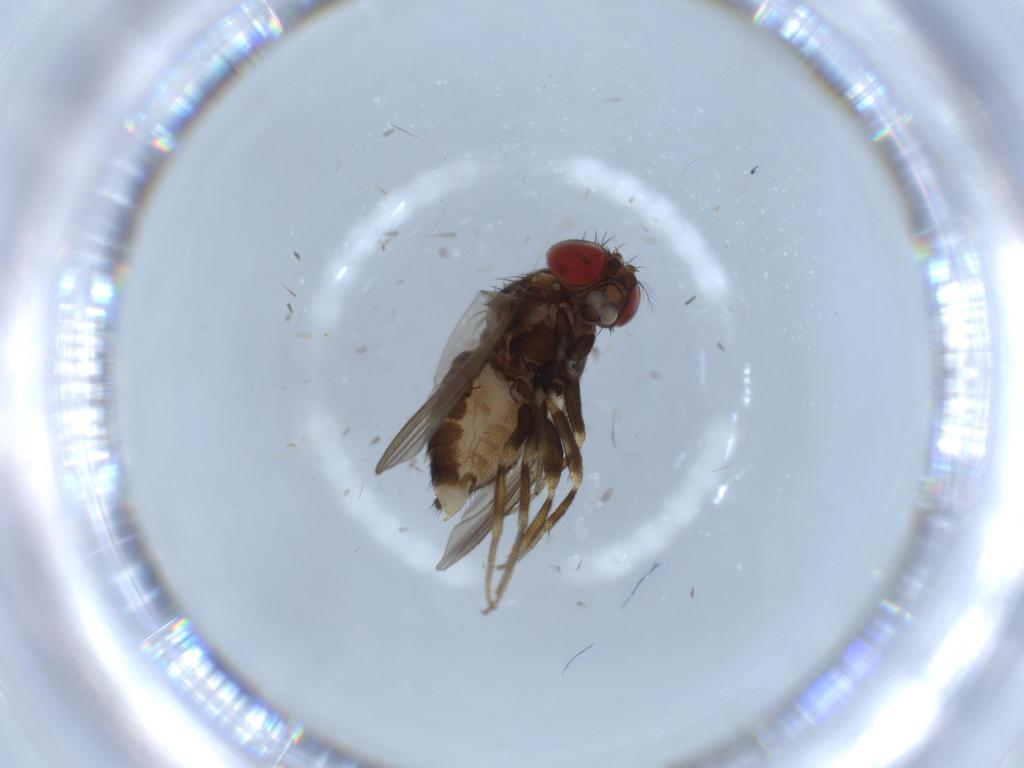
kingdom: Animalia
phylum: Arthropoda
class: Insecta
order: Diptera
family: Drosophilidae
